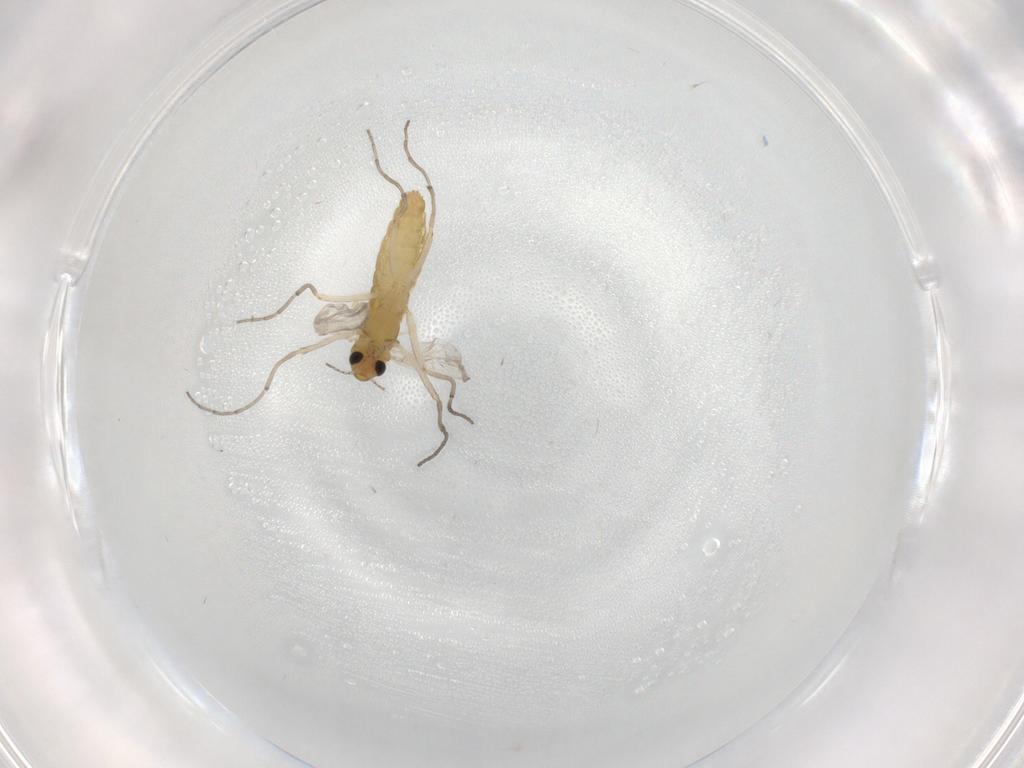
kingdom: Animalia
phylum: Arthropoda
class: Insecta
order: Diptera
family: Chironomidae
